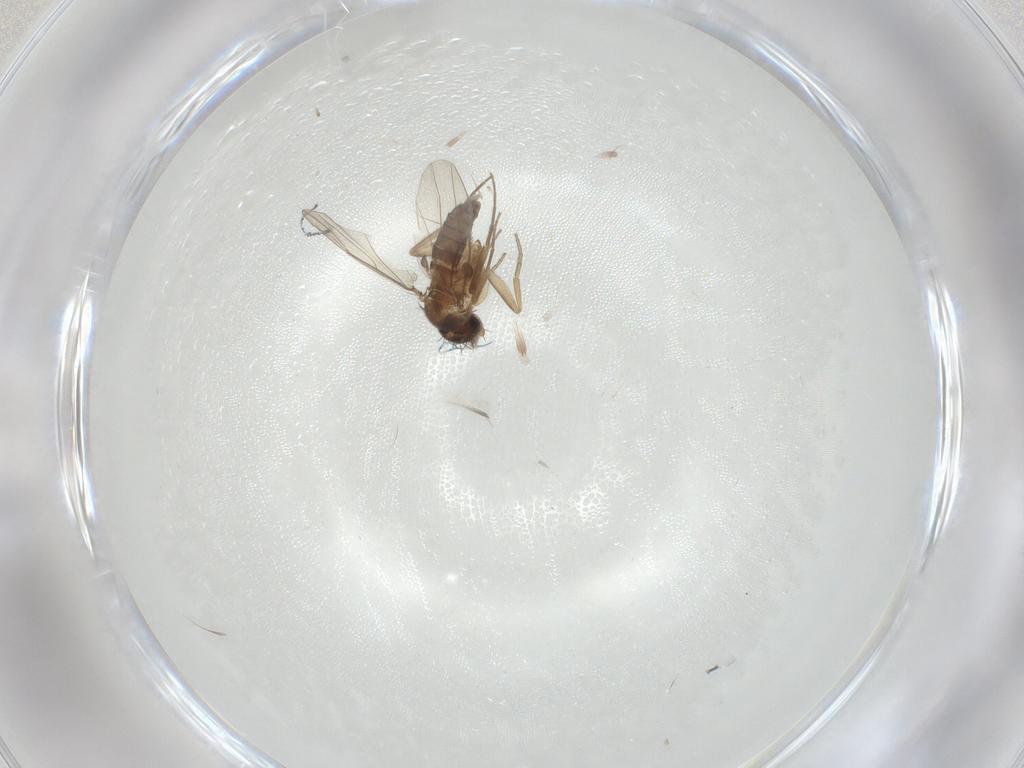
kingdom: Animalia
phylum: Arthropoda
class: Insecta
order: Diptera
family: Phoridae
